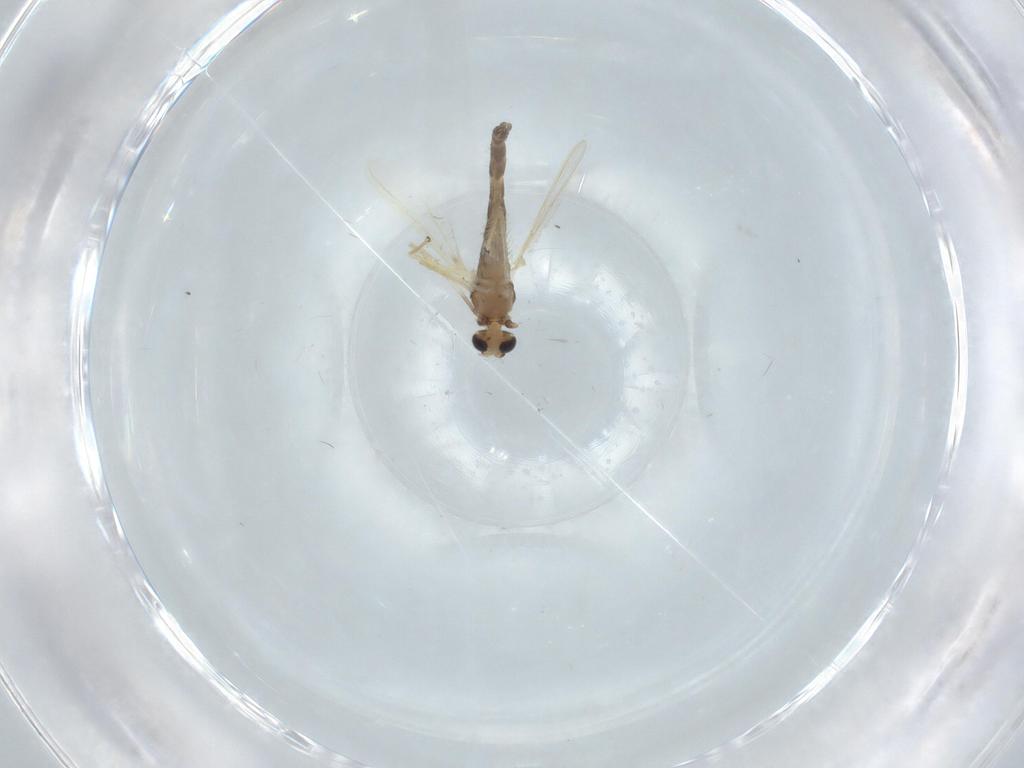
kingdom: Animalia
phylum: Arthropoda
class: Insecta
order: Diptera
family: Chironomidae
